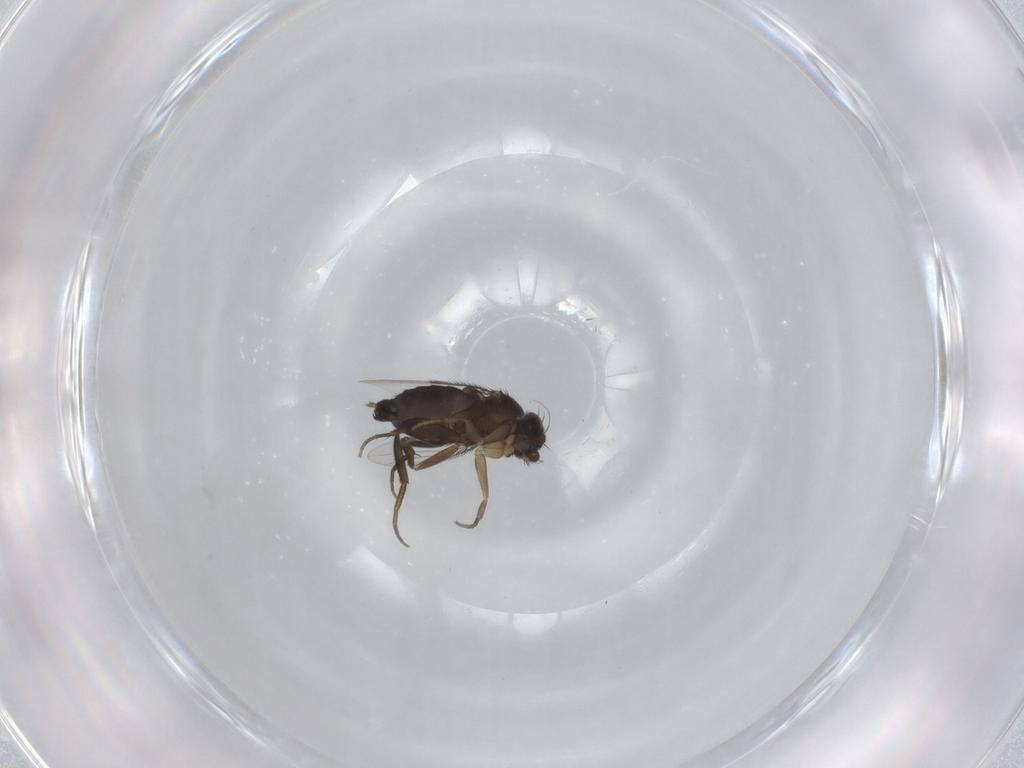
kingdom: Animalia
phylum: Arthropoda
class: Insecta
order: Diptera
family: Phoridae
